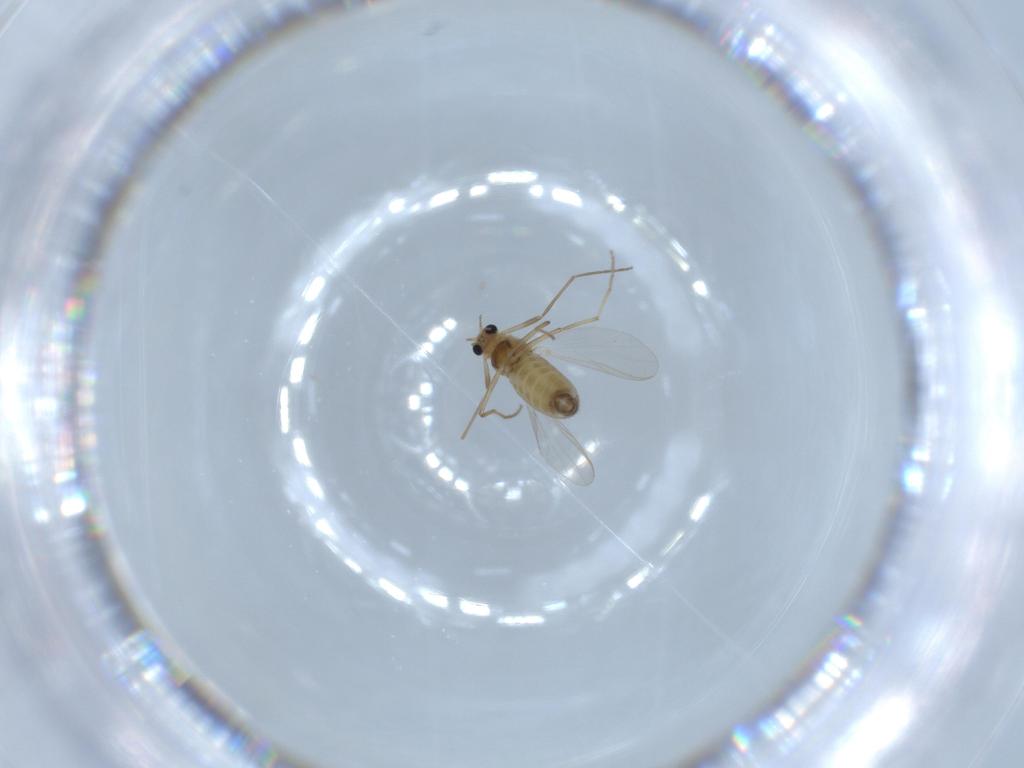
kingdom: Animalia
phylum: Arthropoda
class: Insecta
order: Diptera
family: Chironomidae
